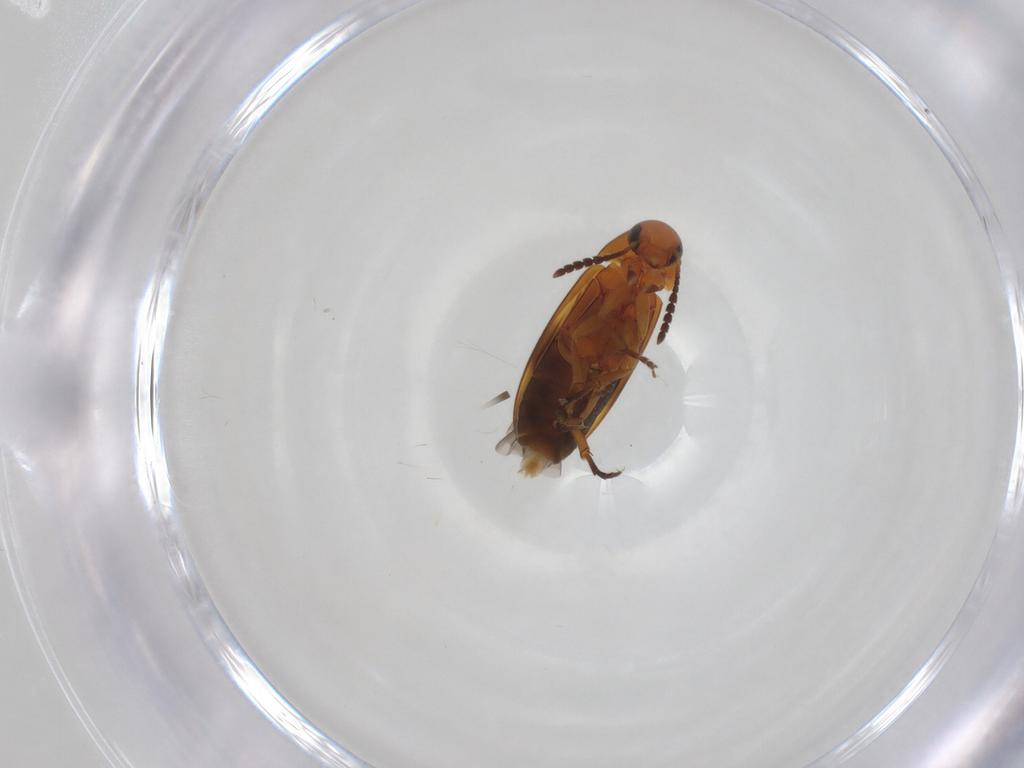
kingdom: Animalia
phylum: Arthropoda
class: Insecta
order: Coleoptera
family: Scraptiidae
